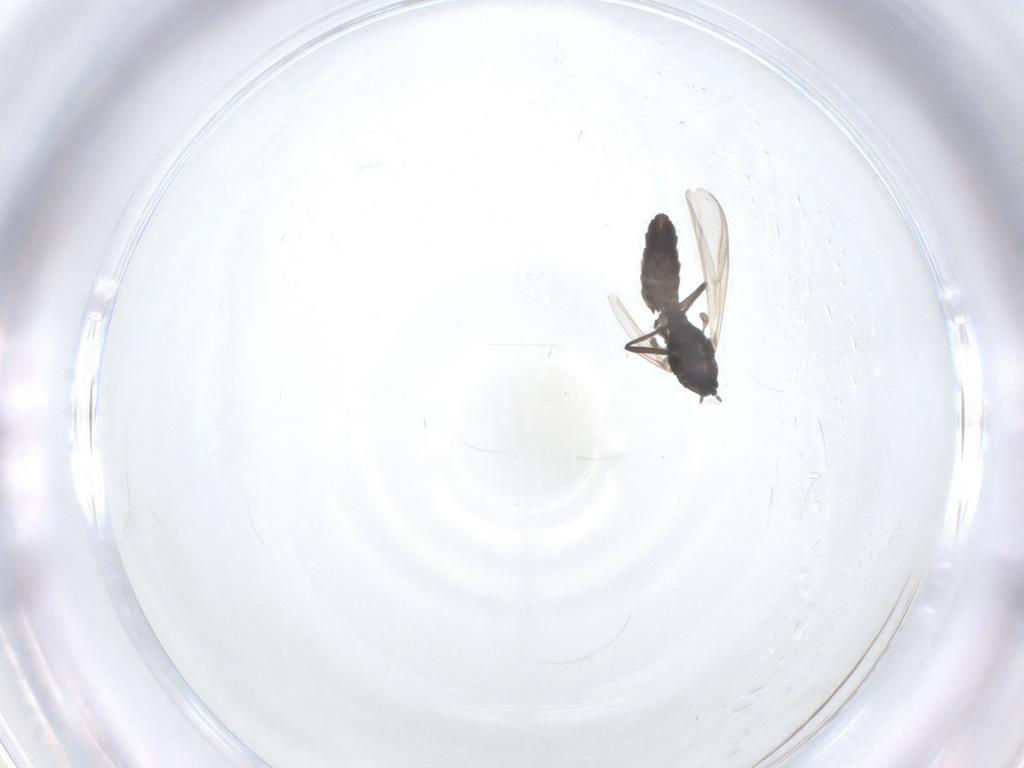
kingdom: Animalia
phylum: Arthropoda
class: Insecta
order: Diptera
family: Chironomidae
